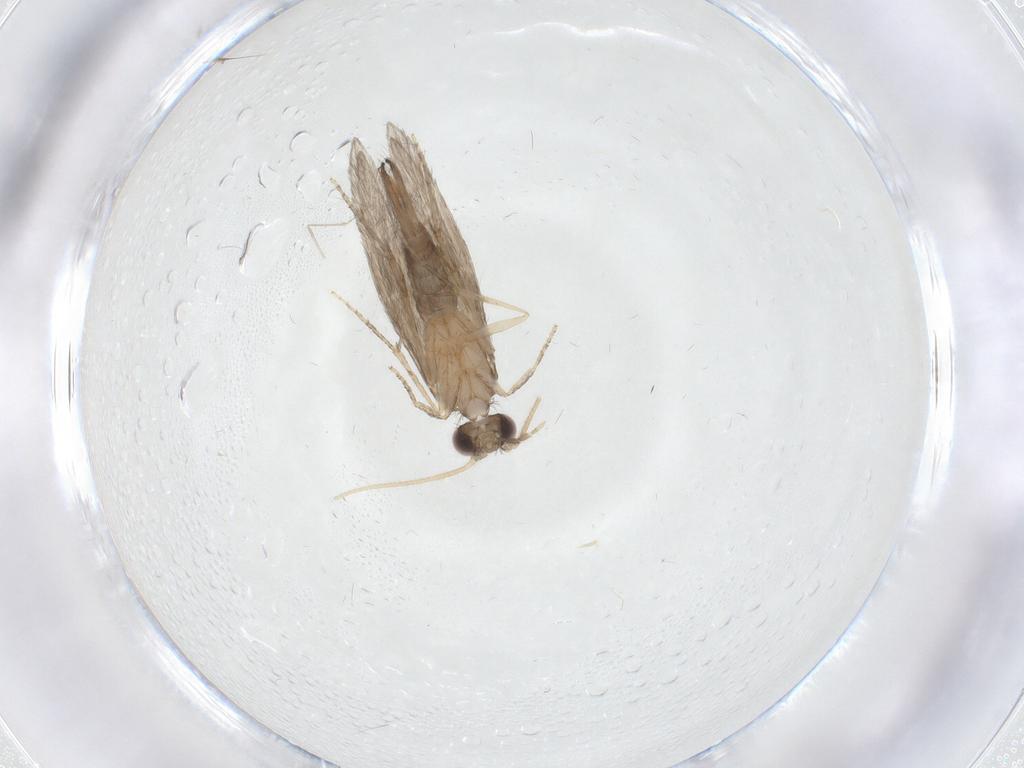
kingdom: Animalia
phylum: Arthropoda
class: Insecta
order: Trichoptera
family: Hydroptilidae
